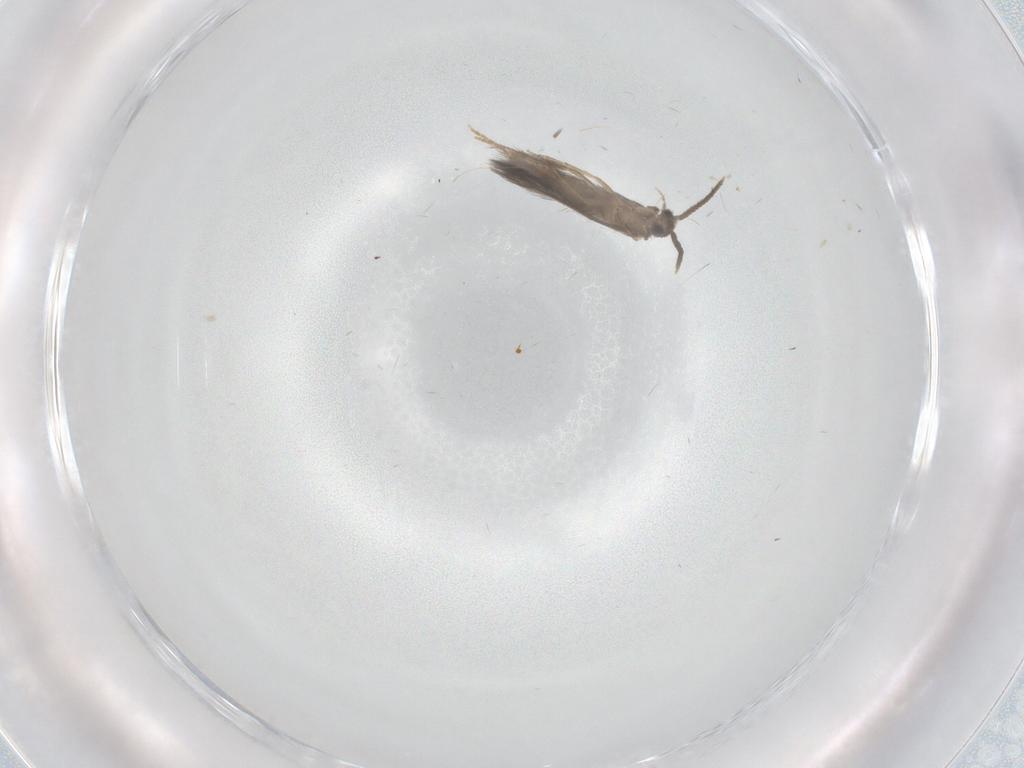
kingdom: Animalia
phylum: Arthropoda
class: Insecta
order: Trichoptera
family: Hydroptilidae
